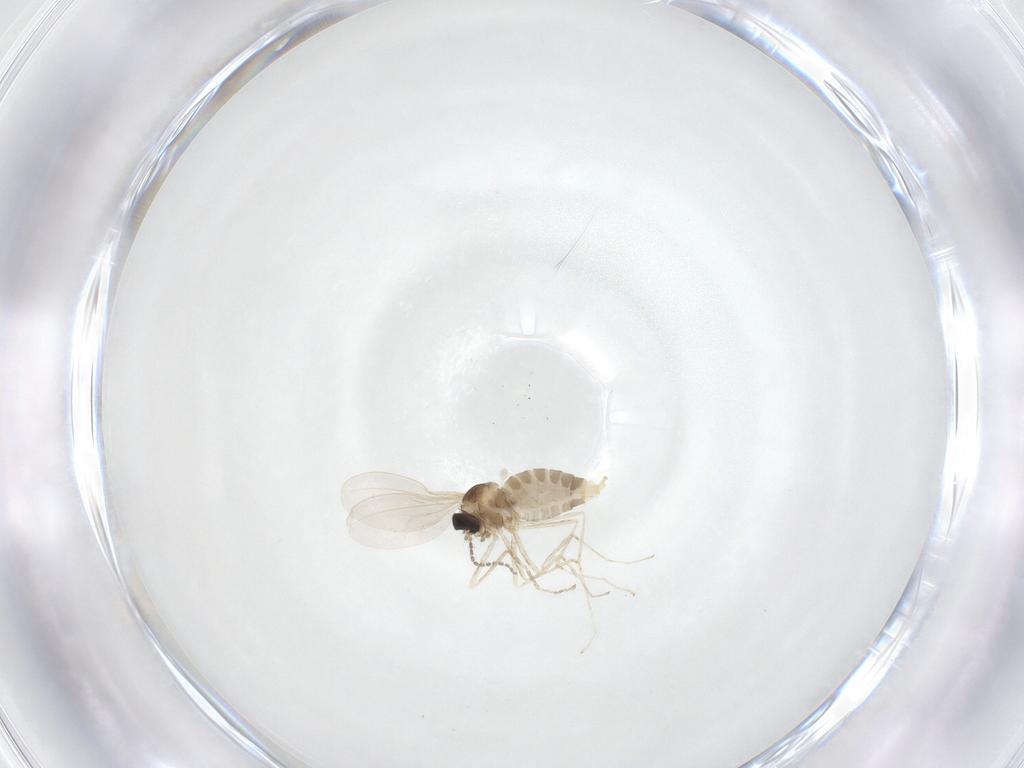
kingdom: Animalia
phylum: Arthropoda
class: Insecta
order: Diptera
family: Cecidomyiidae
